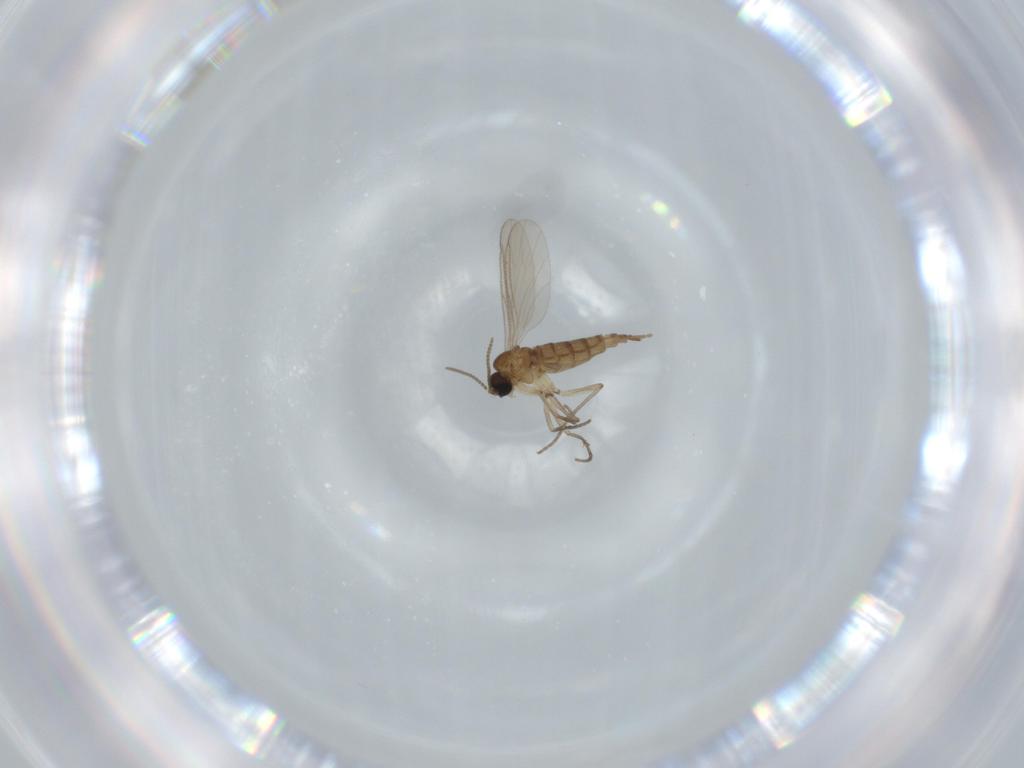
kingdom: Animalia
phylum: Arthropoda
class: Insecta
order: Diptera
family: Sciaridae
